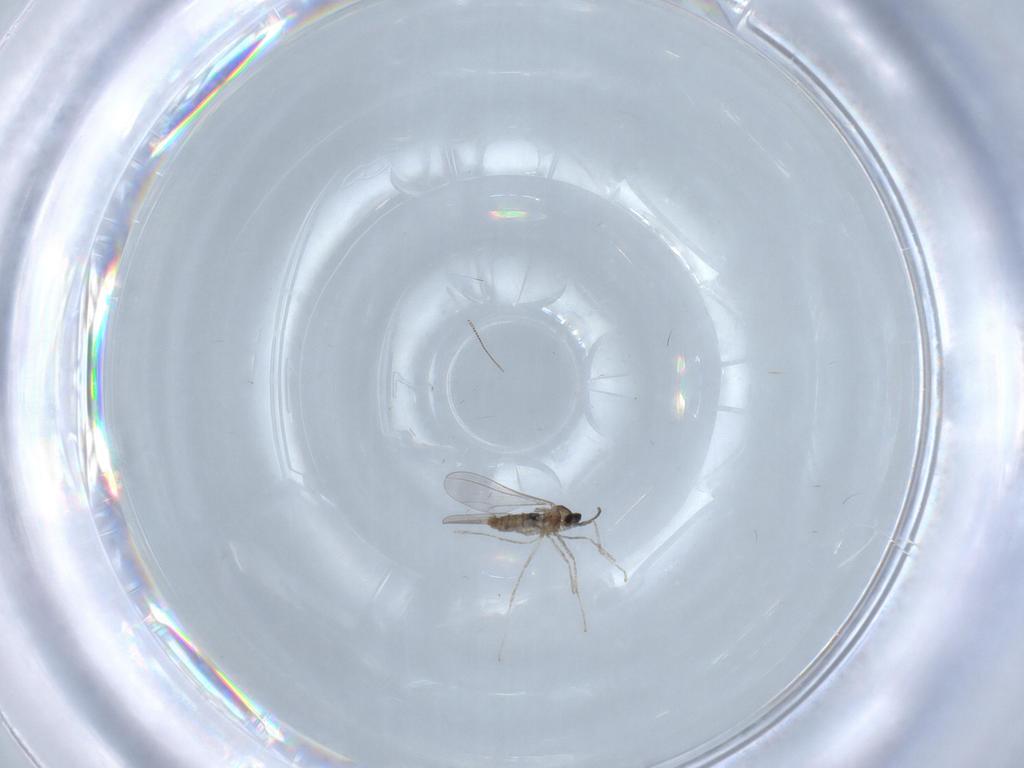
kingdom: Animalia
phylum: Arthropoda
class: Insecta
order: Diptera
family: Chironomidae
